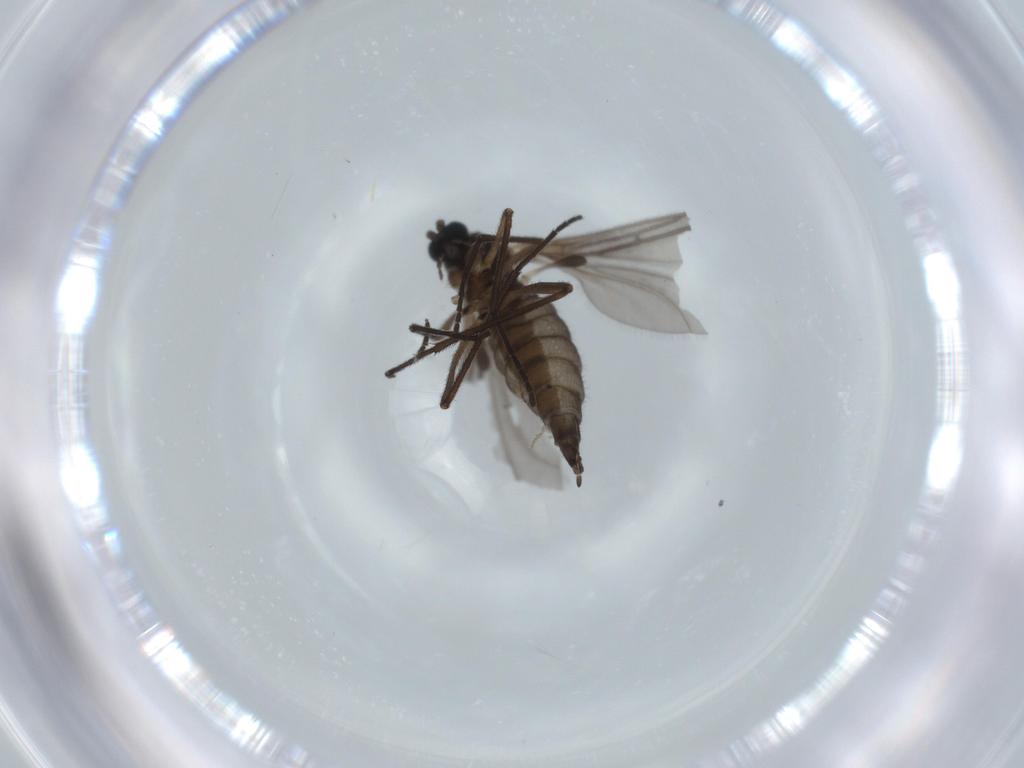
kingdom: Animalia
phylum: Arthropoda
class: Insecta
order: Diptera
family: Sciaridae
